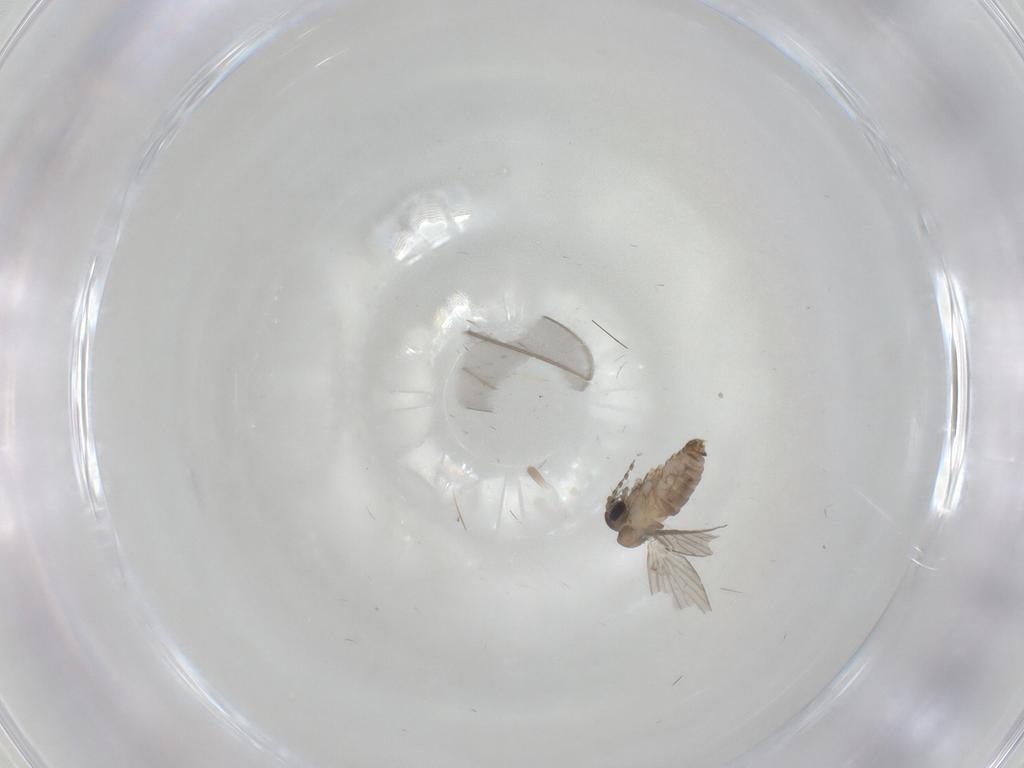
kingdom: Animalia
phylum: Arthropoda
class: Insecta
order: Diptera
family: Cecidomyiidae
